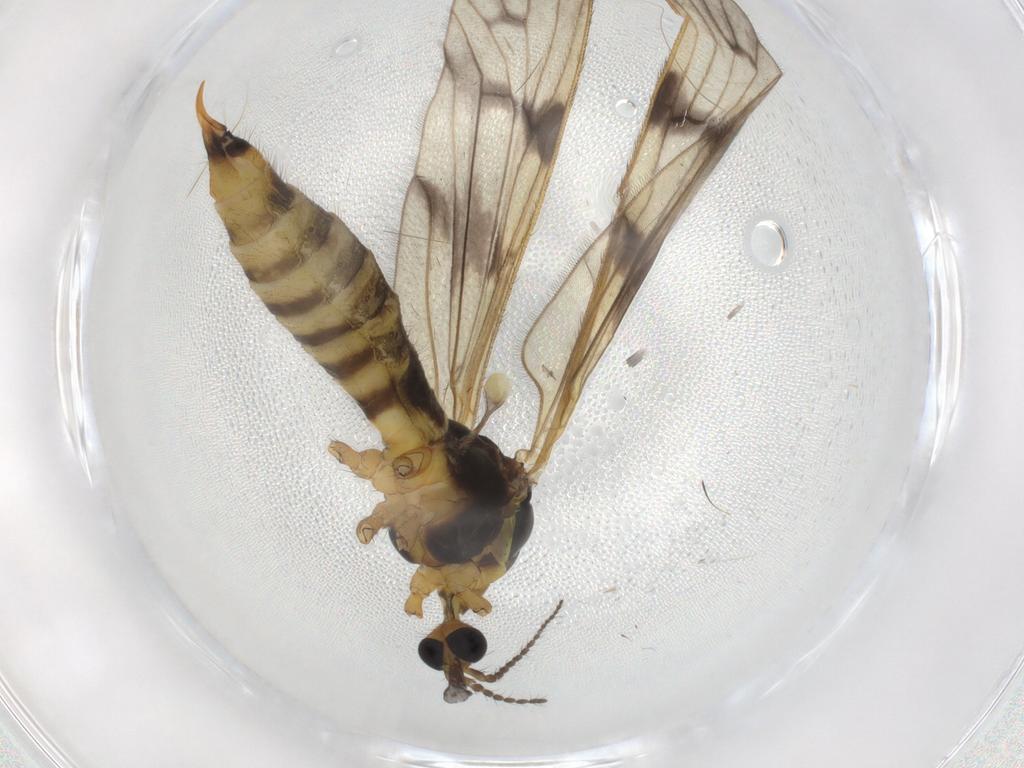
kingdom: Animalia
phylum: Arthropoda
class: Insecta
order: Diptera
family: Limoniidae
